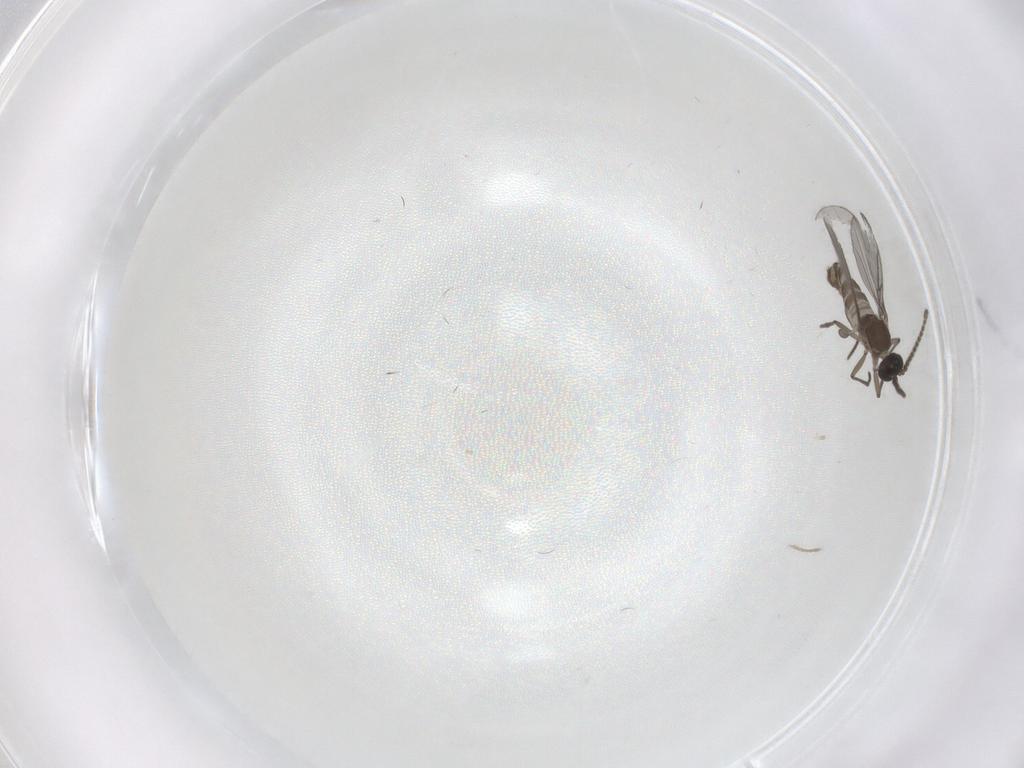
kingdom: Animalia
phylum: Arthropoda
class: Insecta
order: Diptera
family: Limoniidae
